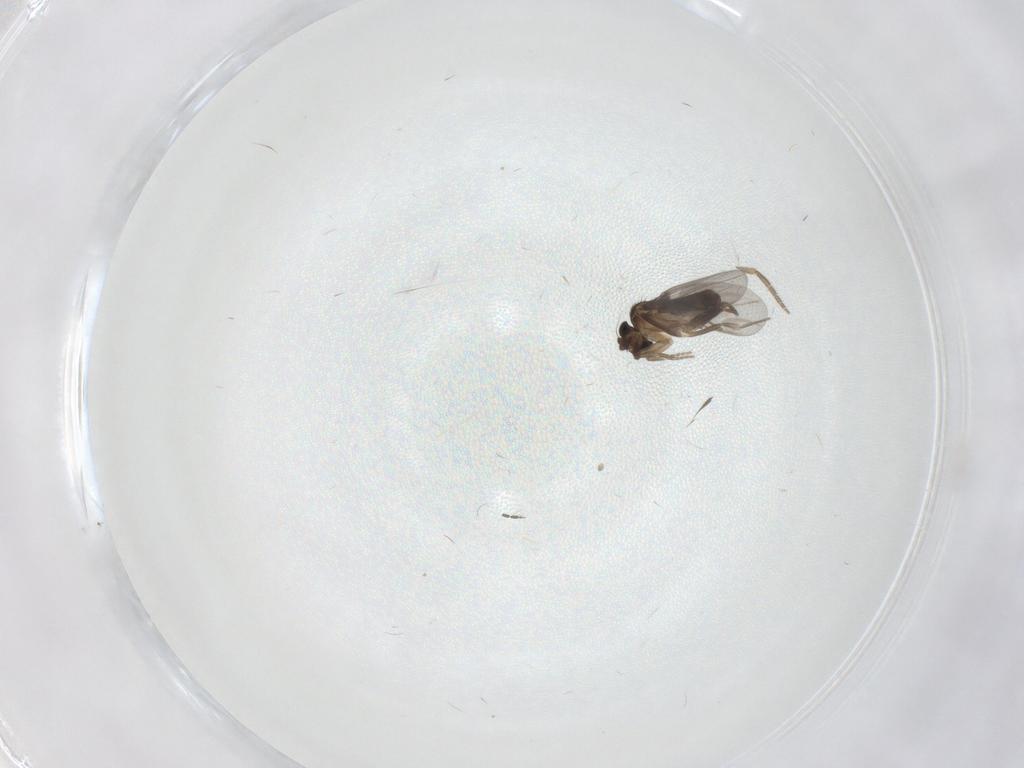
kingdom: Animalia
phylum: Arthropoda
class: Insecta
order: Diptera
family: Phoridae
